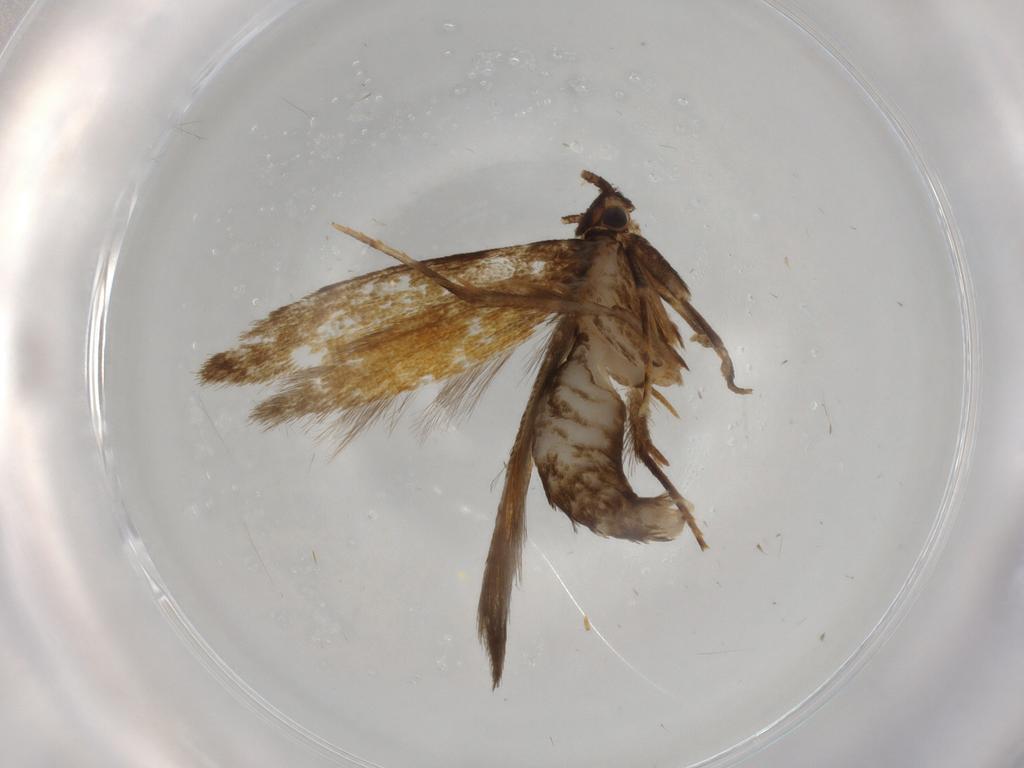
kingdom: Animalia
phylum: Arthropoda
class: Insecta
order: Lepidoptera
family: Tineidae
